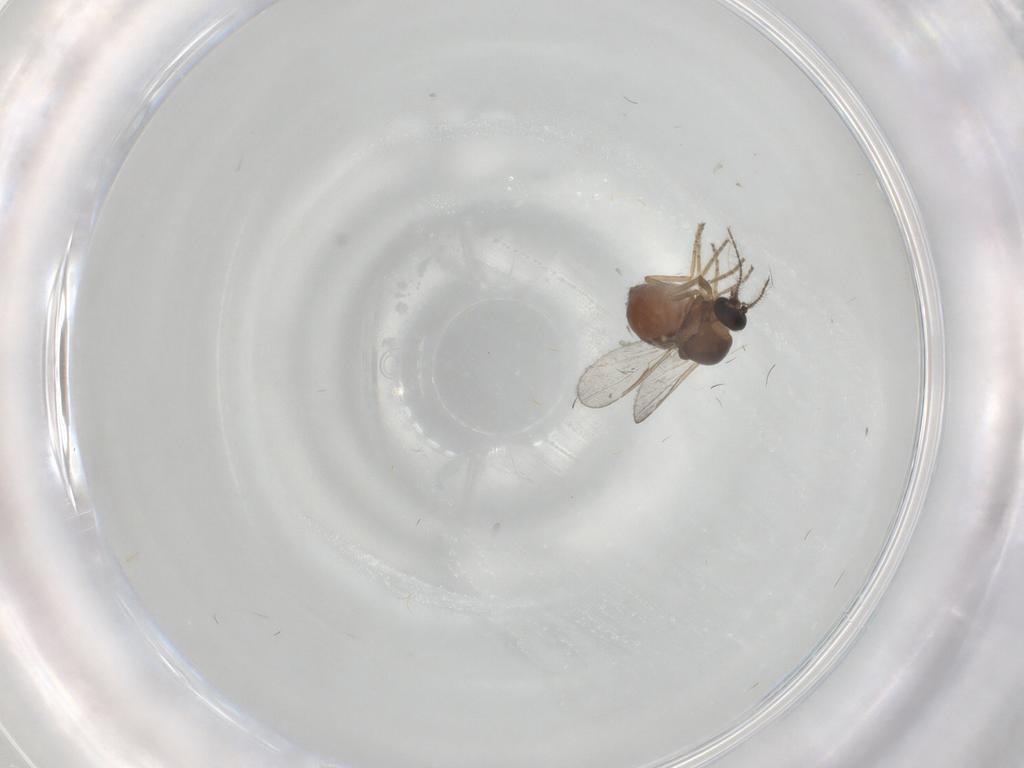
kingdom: Animalia
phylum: Arthropoda
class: Insecta
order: Diptera
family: Ceratopogonidae
